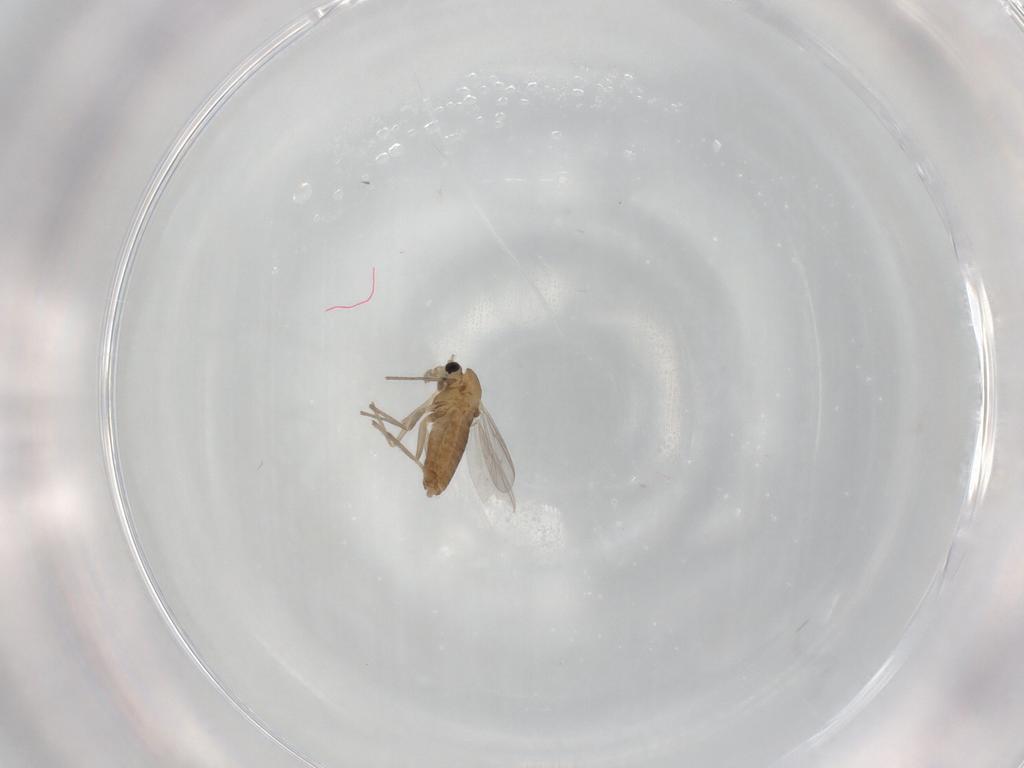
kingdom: Animalia
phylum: Arthropoda
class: Insecta
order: Diptera
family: Chironomidae
